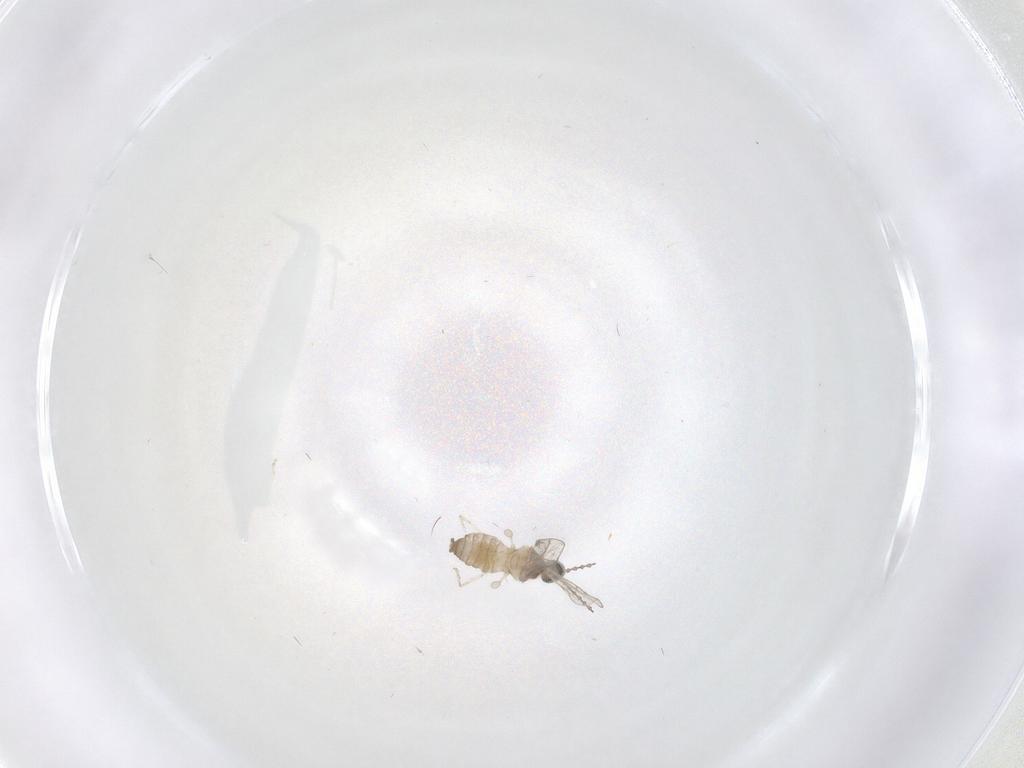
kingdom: Animalia
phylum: Arthropoda
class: Insecta
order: Diptera
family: Cecidomyiidae
